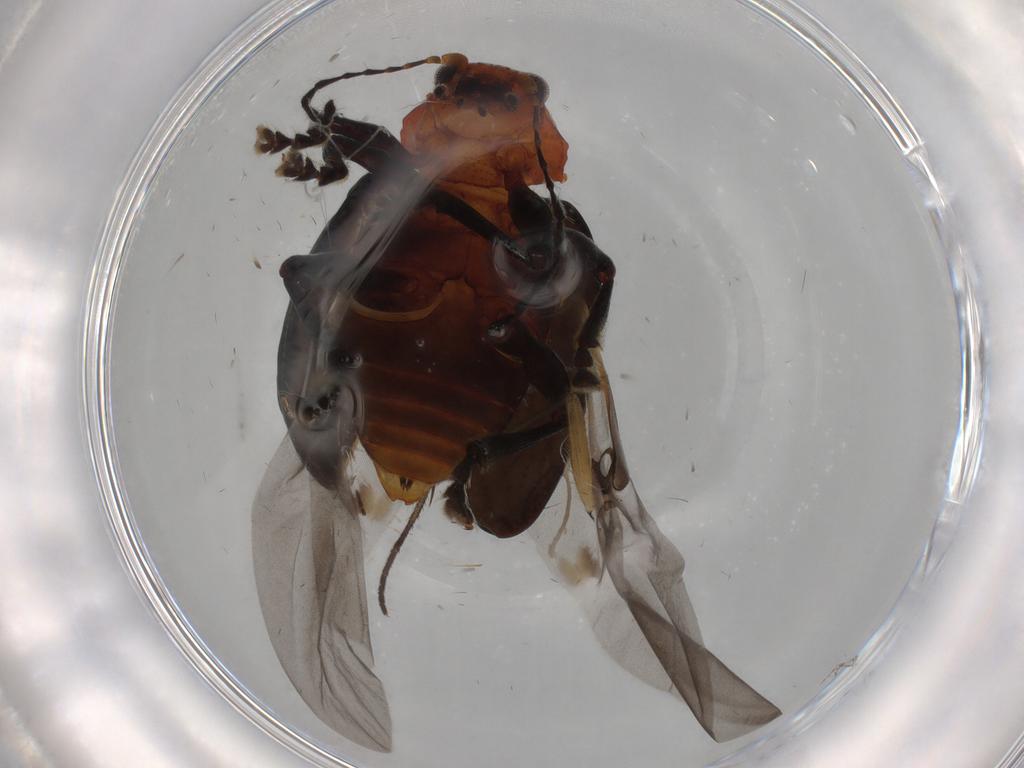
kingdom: Animalia
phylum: Arthropoda
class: Insecta
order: Coleoptera
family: Chrysomelidae
